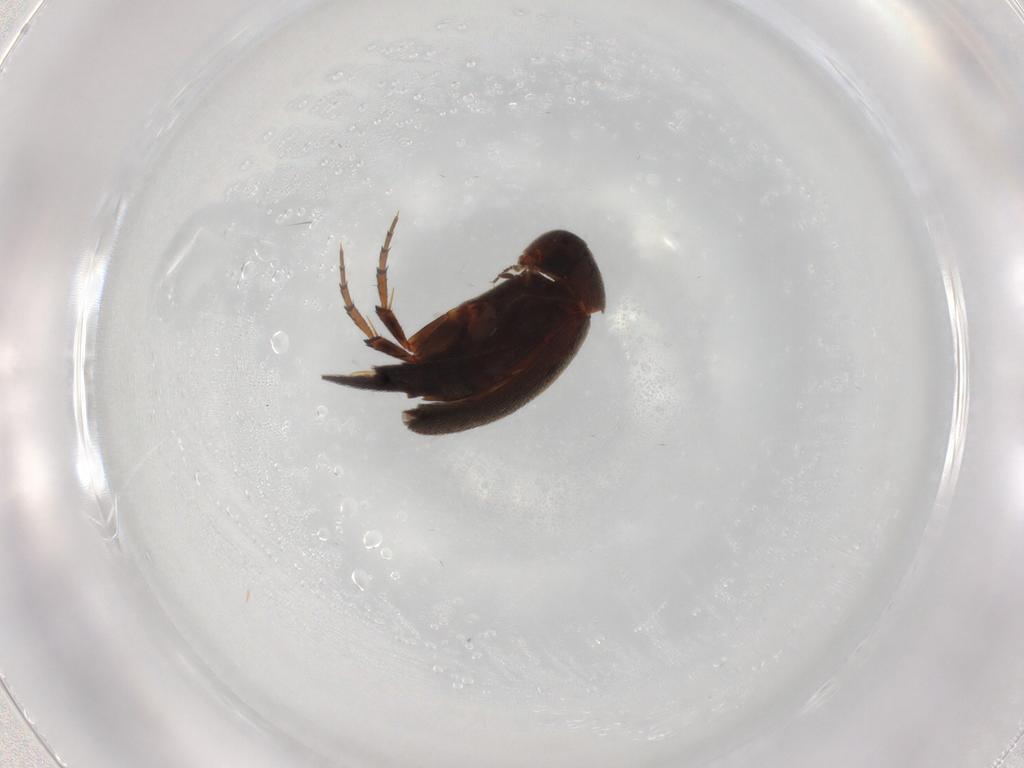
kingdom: Animalia
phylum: Arthropoda
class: Insecta
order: Coleoptera
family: Mordellidae
